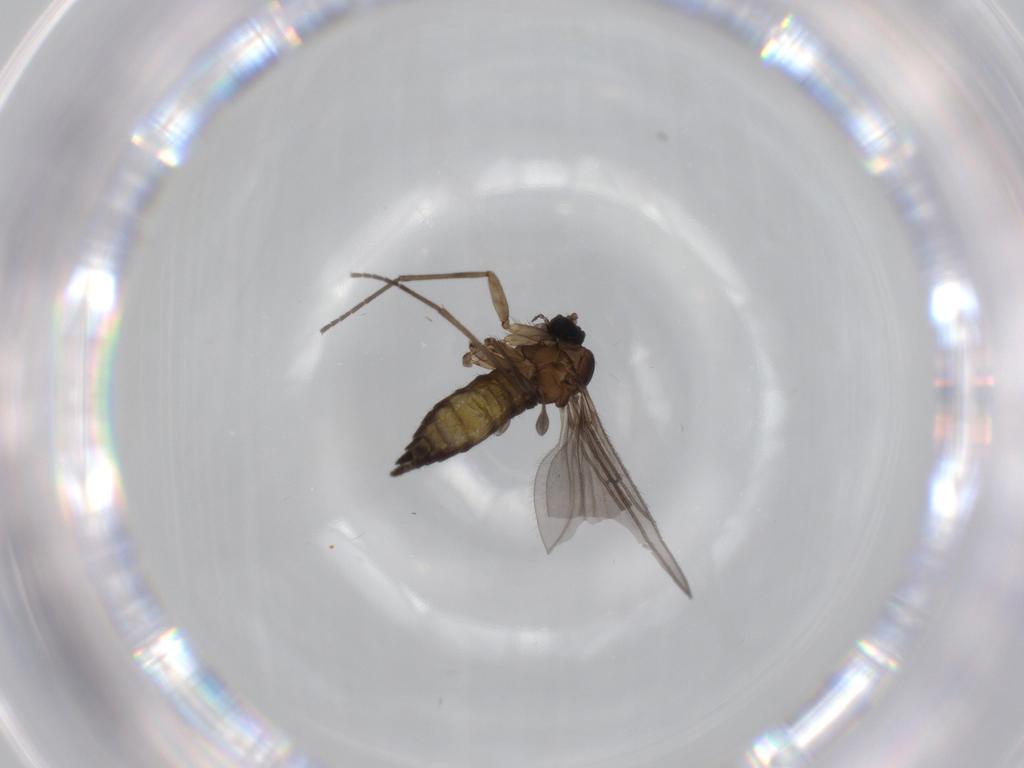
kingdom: Animalia
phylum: Arthropoda
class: Insecta
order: Diptera
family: Sciaridae
